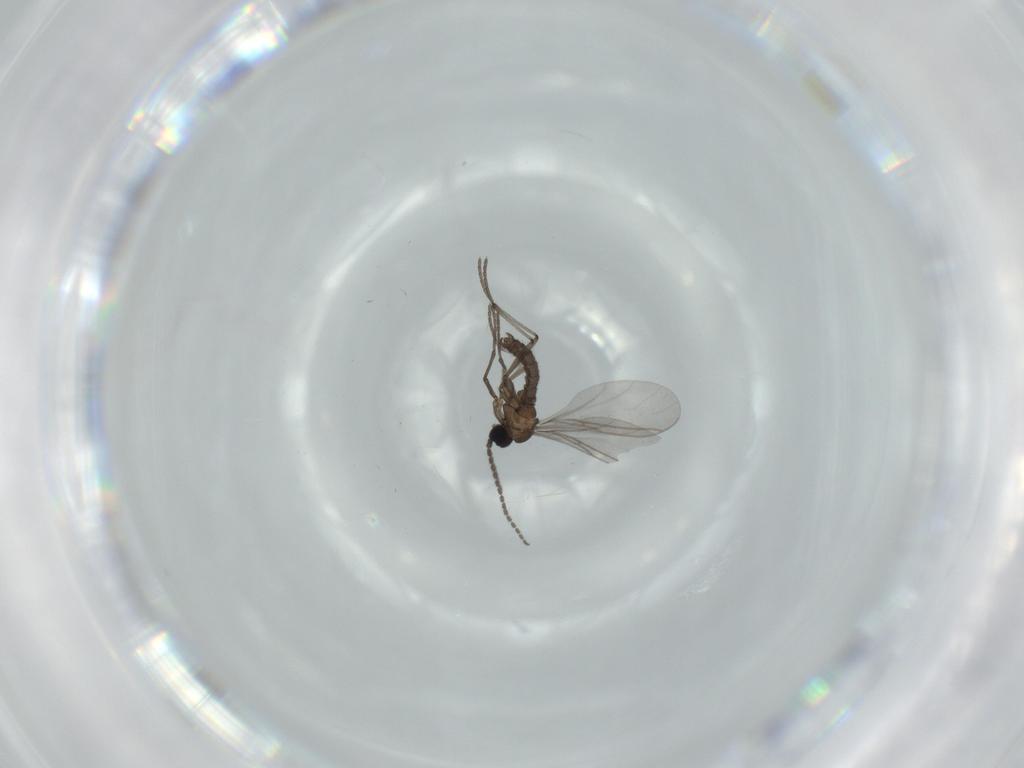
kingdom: Animalia
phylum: Arthropoda
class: Insecta
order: Diptera
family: Sciaridae
